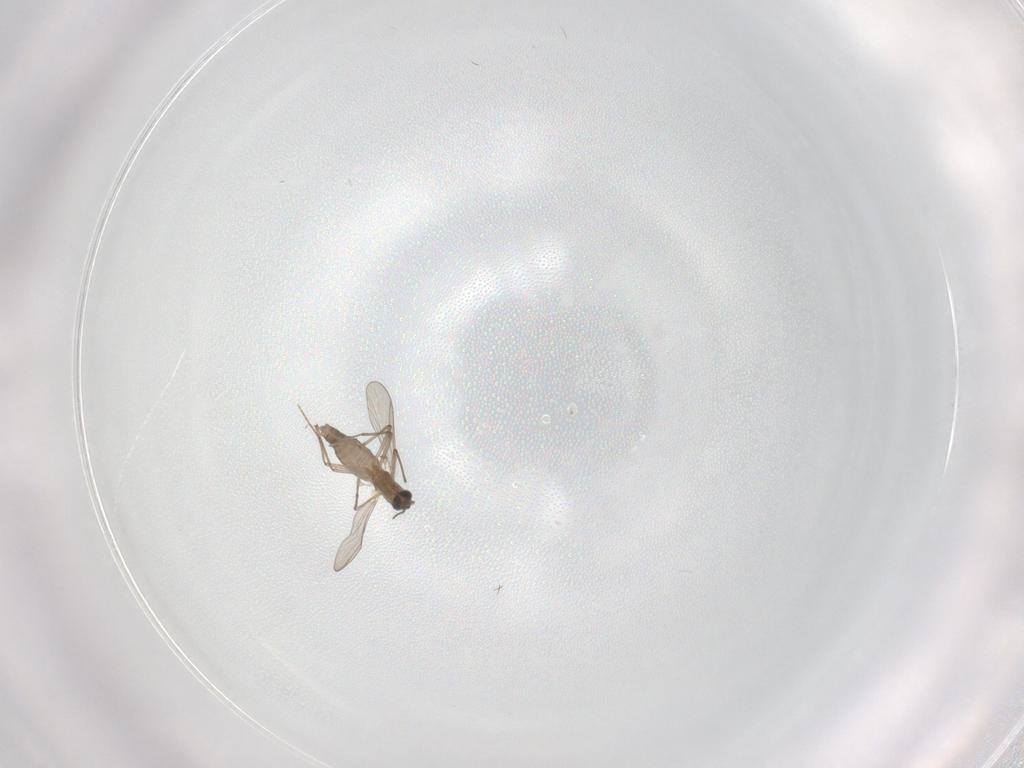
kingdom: Animalia
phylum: Arthropoda
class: Insecta
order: Diptera
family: Chironomidae
